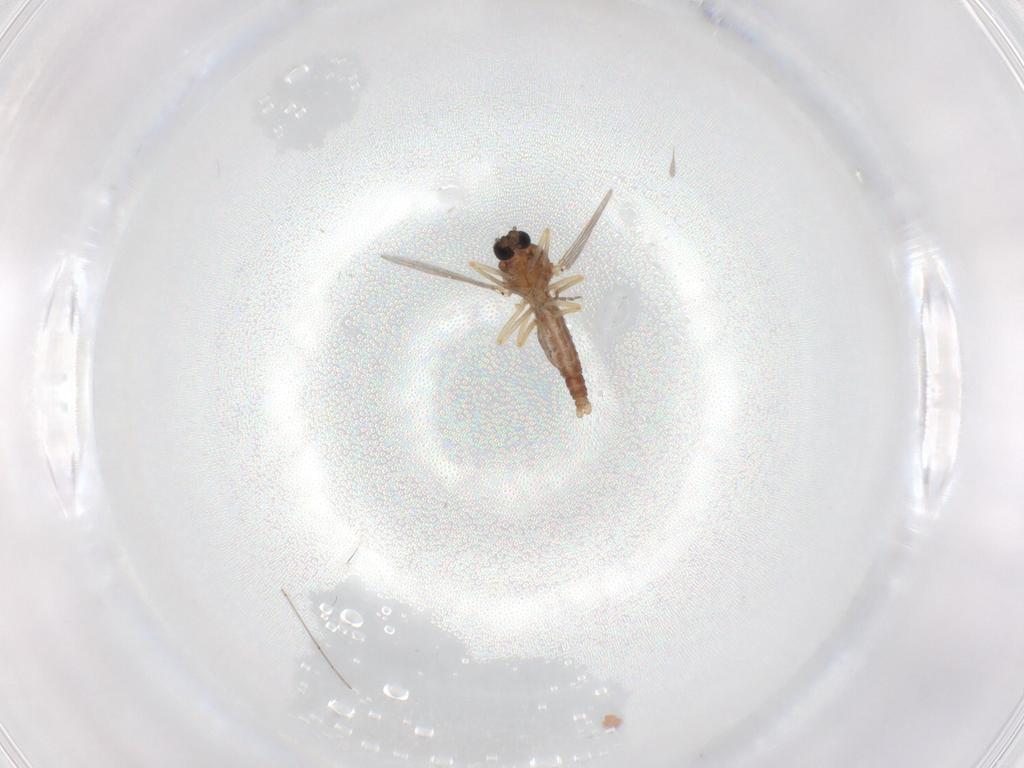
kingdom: Animalia
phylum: Arthropoda
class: Insecta
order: Diptera
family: Ceratopogonidae
